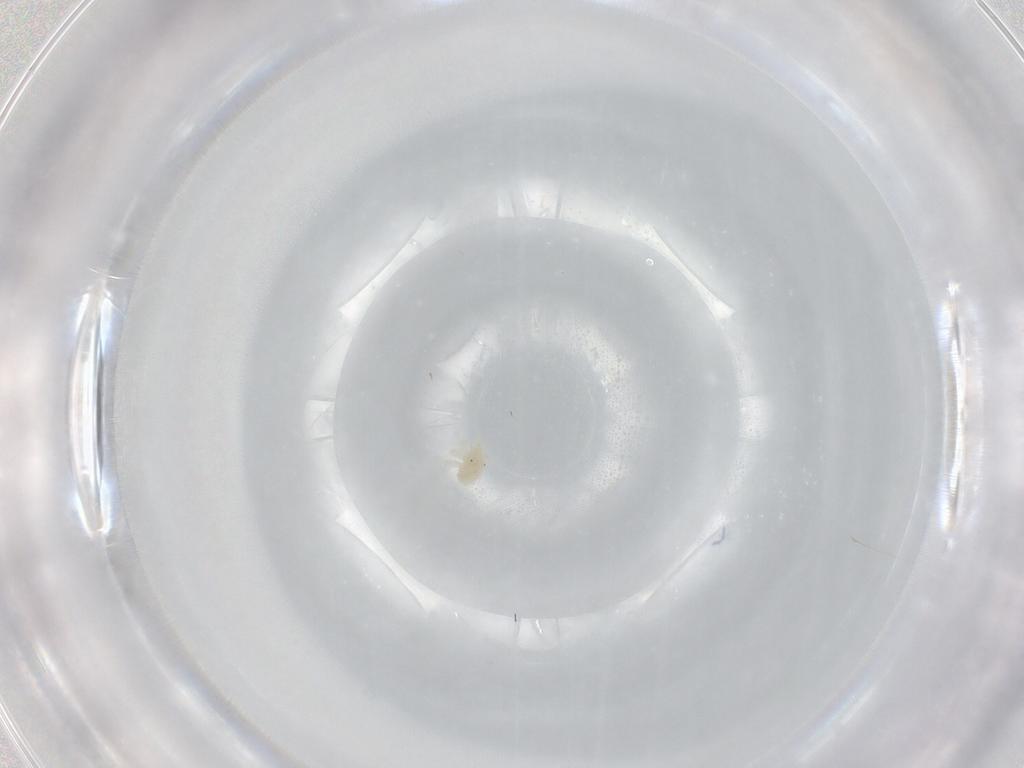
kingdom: Animalia
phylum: Arthropoda
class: Arachnida
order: Trombidiformes
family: Anystidae
